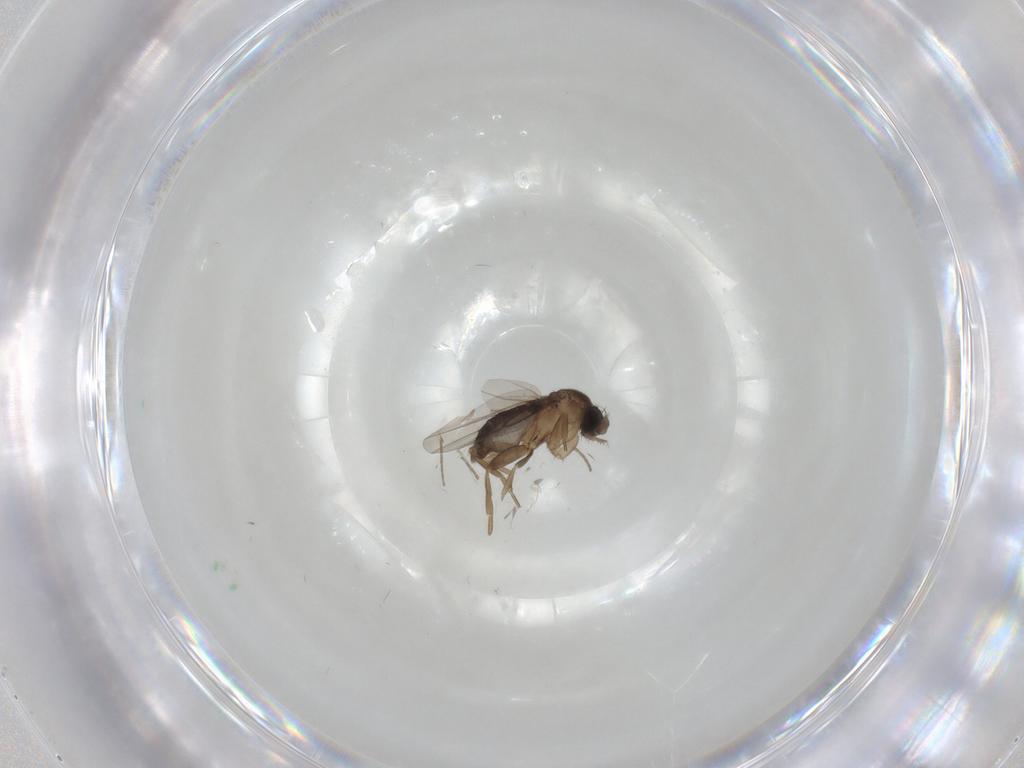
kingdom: Animalia
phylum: Arthropoda
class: Insecta
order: Diptera
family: Phoridae
